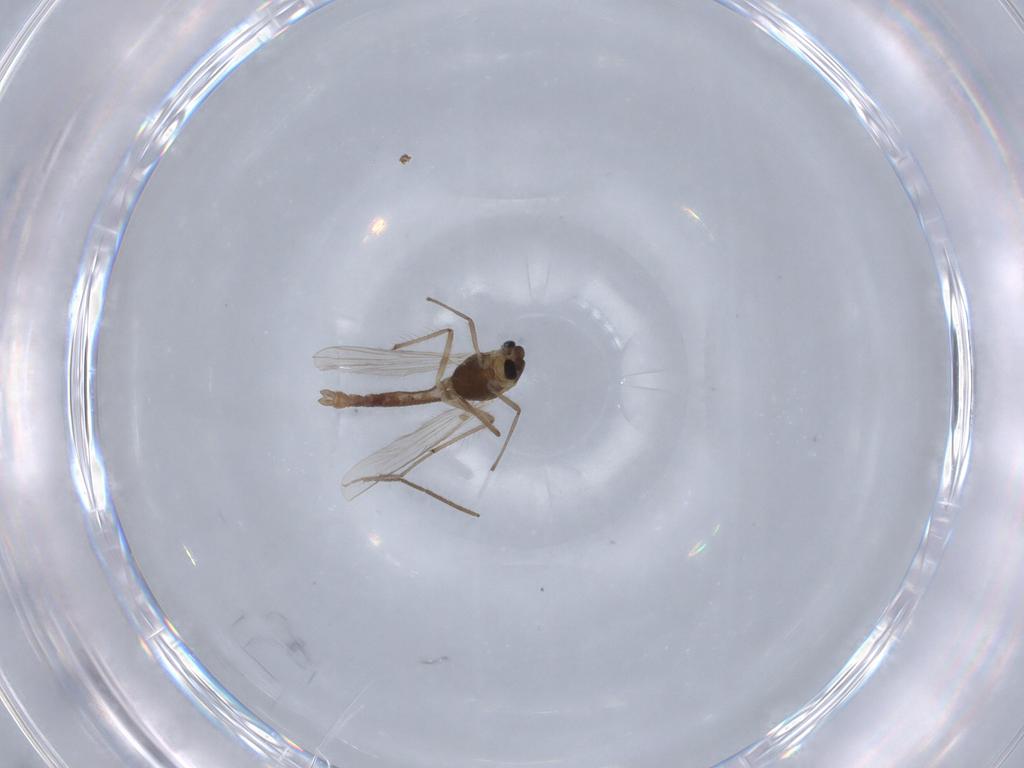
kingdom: Animalia
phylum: Arthropoda
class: Insecta
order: Diptera
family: Chironomidae
